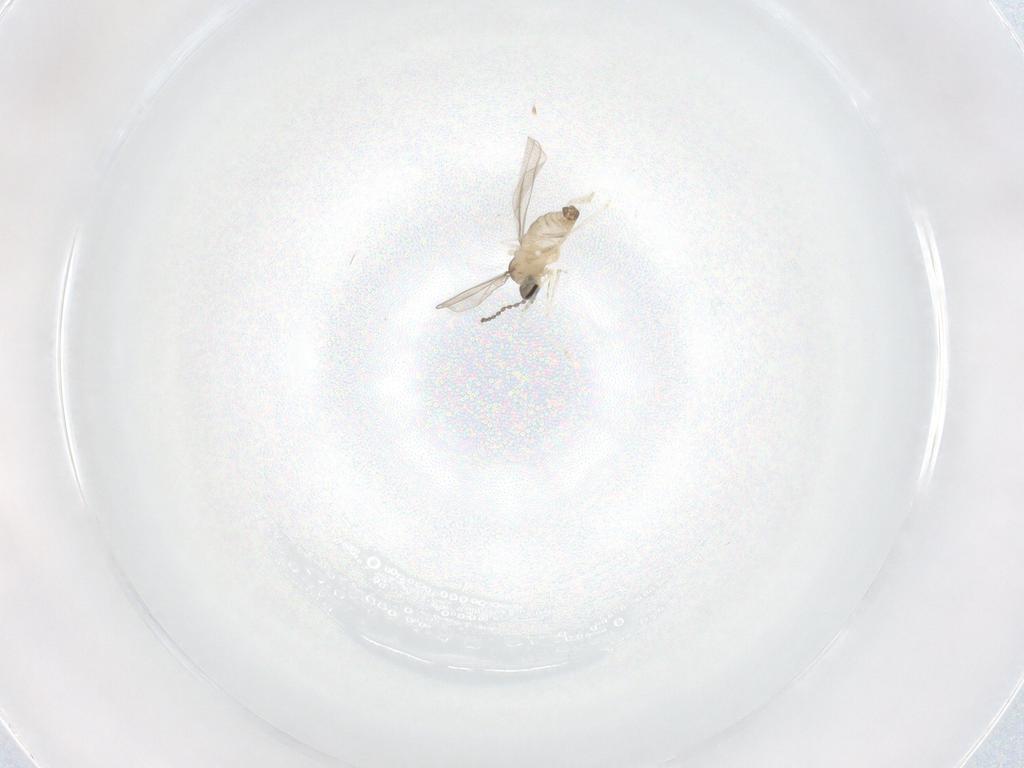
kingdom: Animalia
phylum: Arthropoda
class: Insecta
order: Diptera
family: Cecidomyiidae
